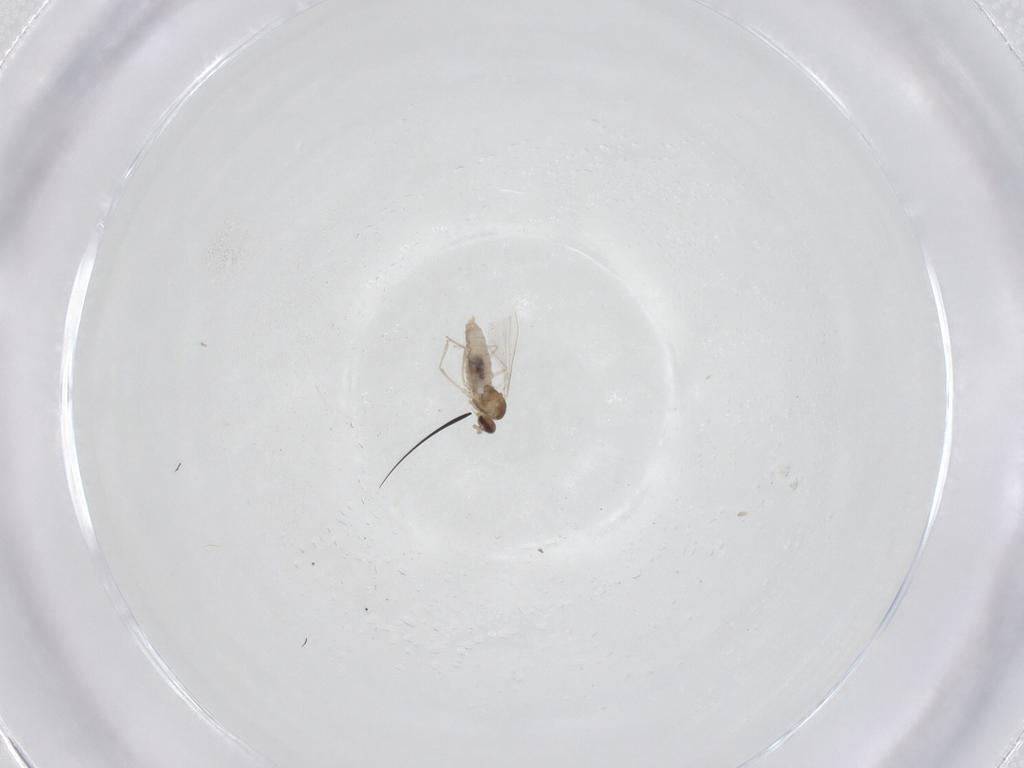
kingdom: Animalia
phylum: Arthropoda
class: Insecta
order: Diptera
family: Cecidomyiidae
